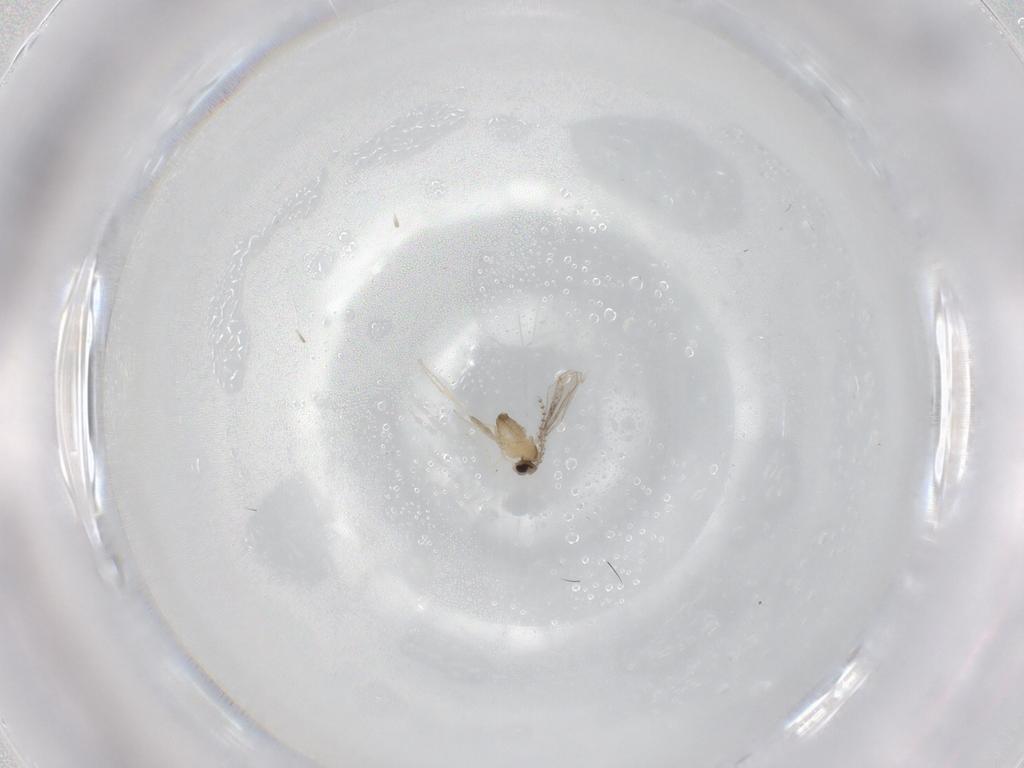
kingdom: Animalia
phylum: Arthropoda
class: Insecta
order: Diptera
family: Cecidomyiidae
